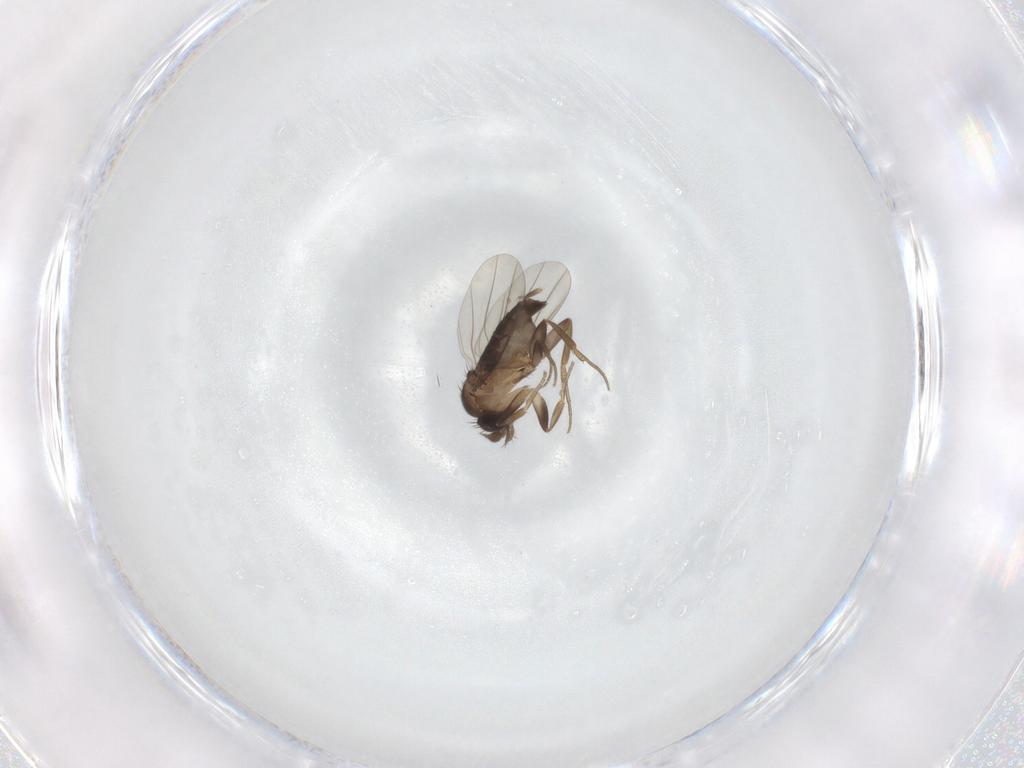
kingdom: Animalia
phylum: Arthropoda
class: Insecta
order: Diptera
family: Phoridae
